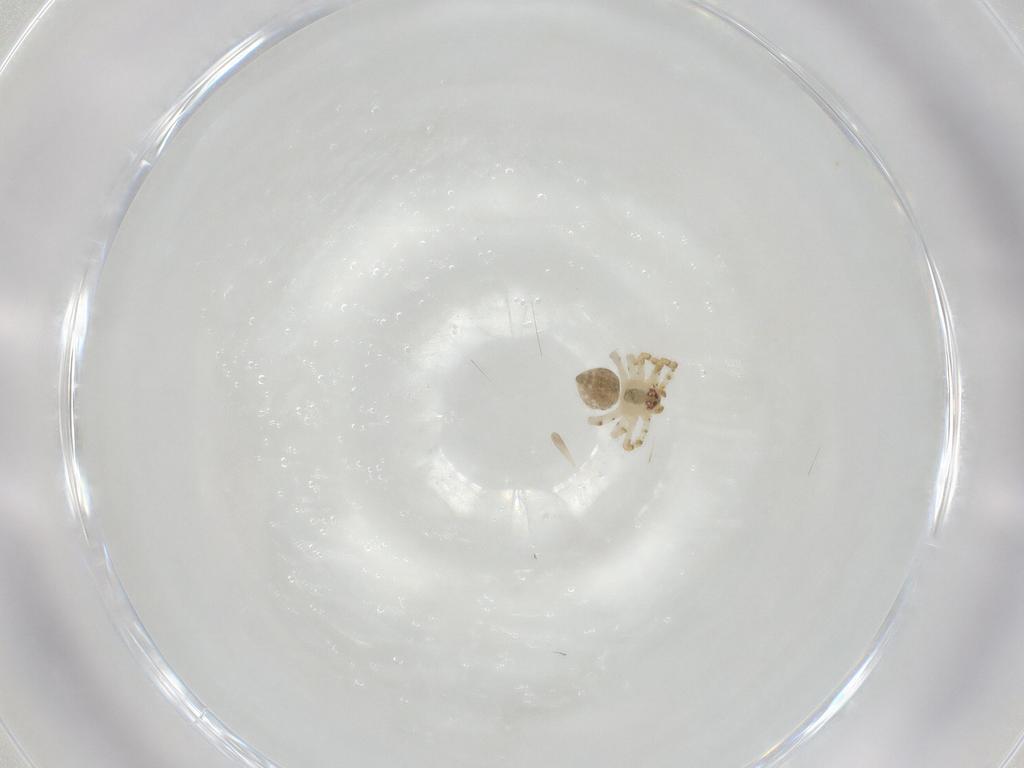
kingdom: Animalia
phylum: Arthropoda
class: Arachnida
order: Araneae
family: Theridiidae
